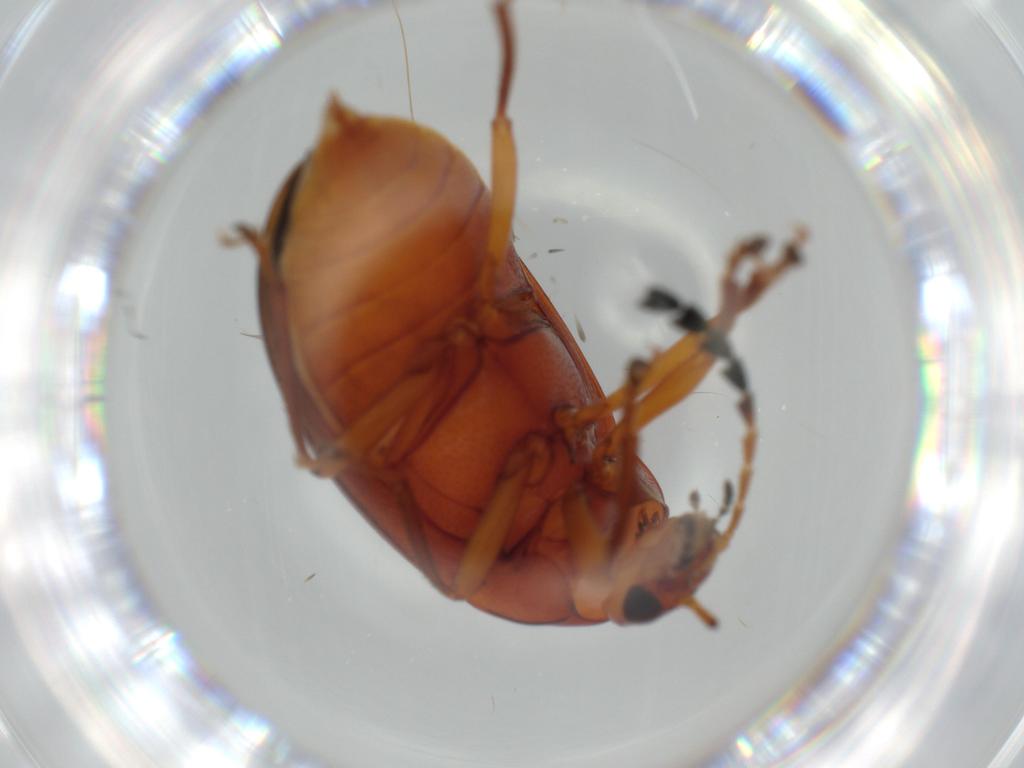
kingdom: Animalia
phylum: Arthropoda
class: Insecta
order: Coleoptera
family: Ptilodactylidae
